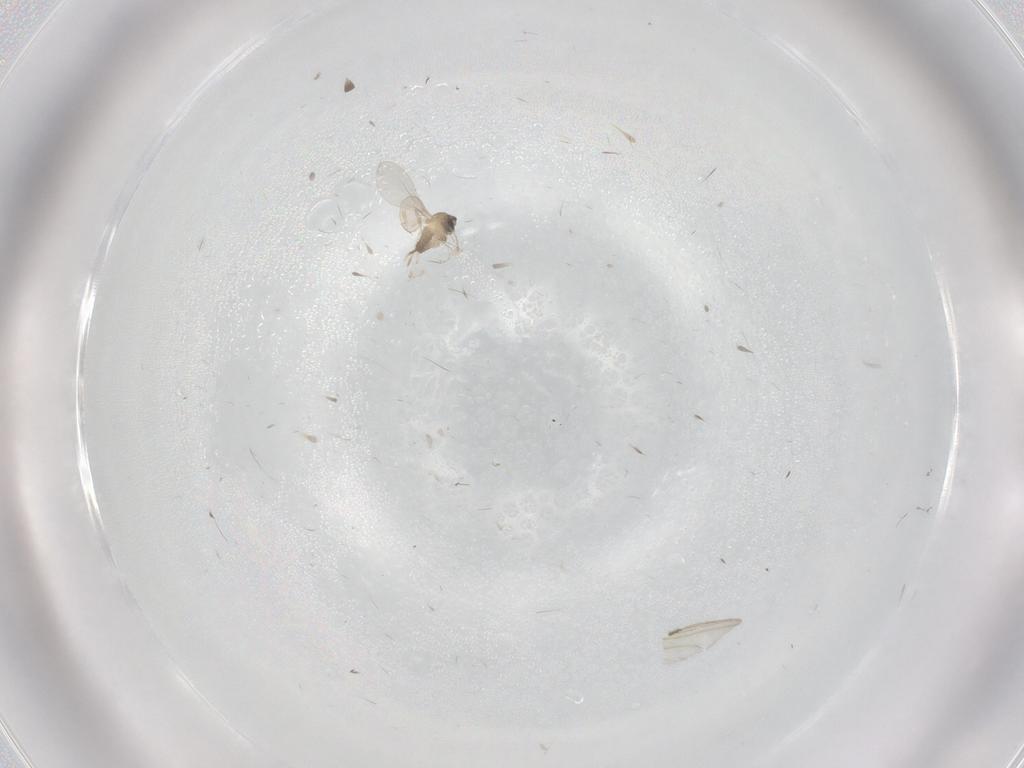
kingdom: Animalia
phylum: Arthropoda
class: Insecta
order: Diptera
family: Phoridae
